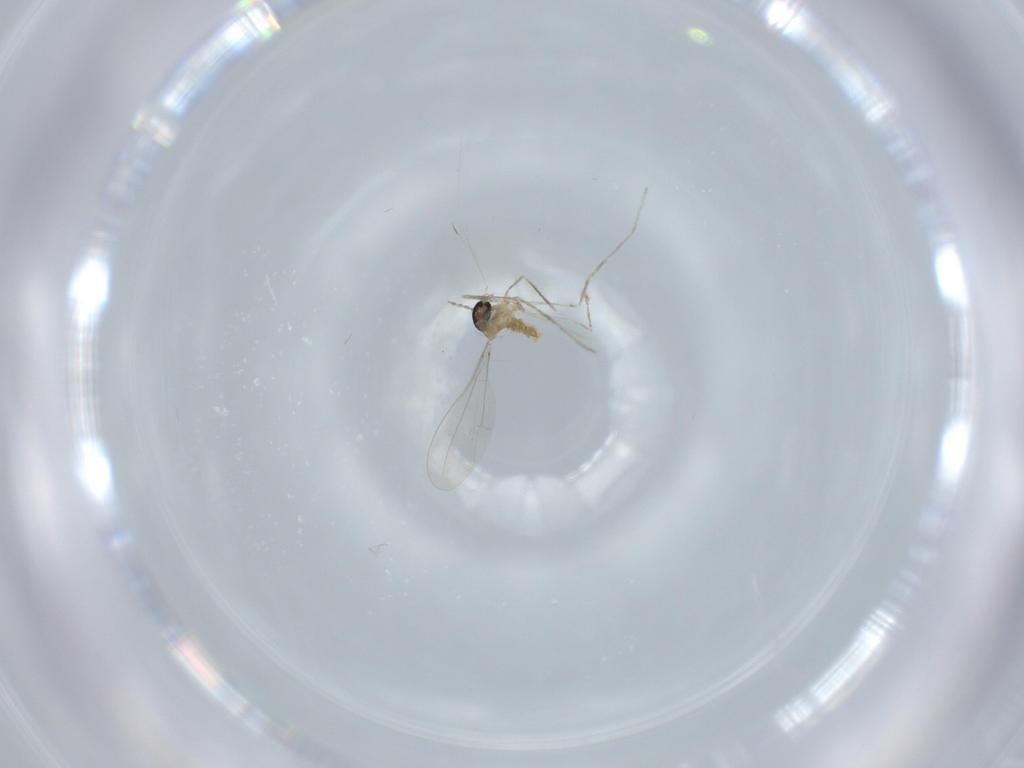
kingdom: Animalia
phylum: Arthropoda
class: Insecta
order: Diptera
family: Cecidomyiidae
